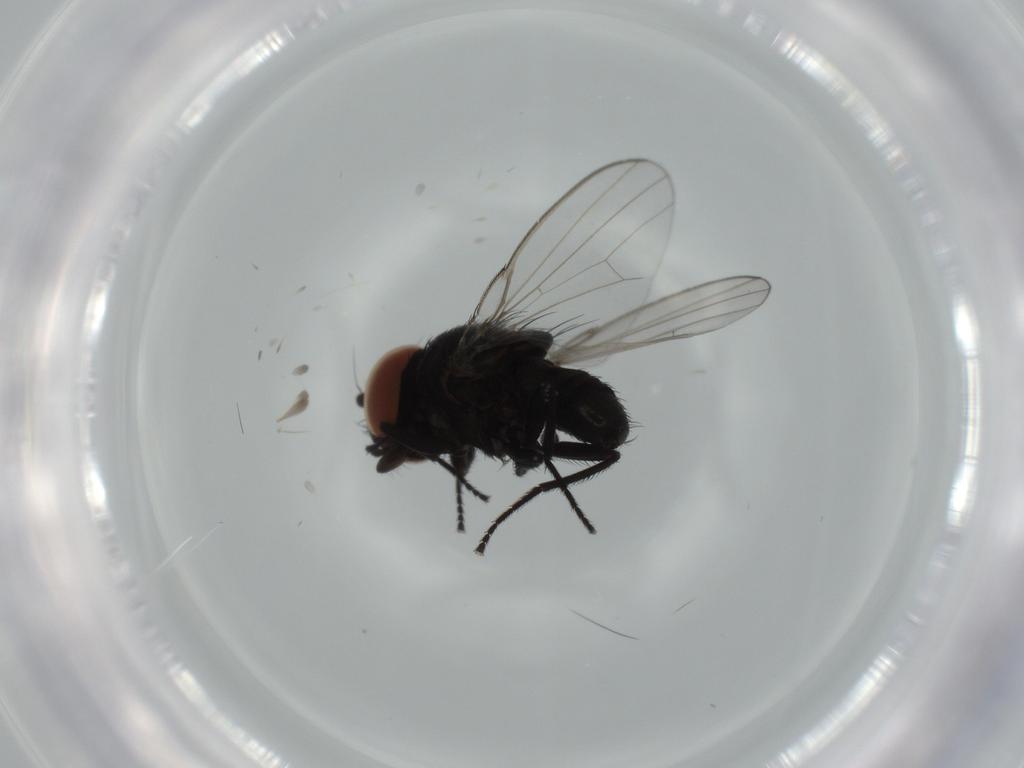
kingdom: Animalia
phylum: Arthropoda
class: Insecta
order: Diptera
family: Milichiidae
